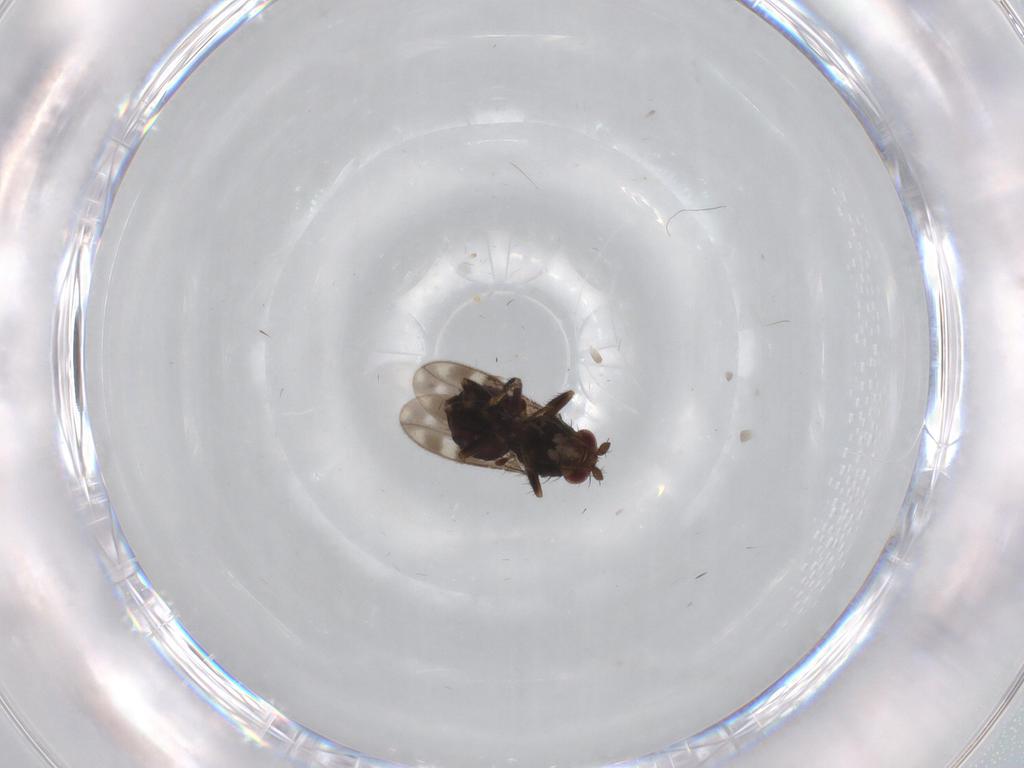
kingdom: Animalia
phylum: Arthropoda
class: Insecta
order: Diptera
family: Sphaeroceridae
